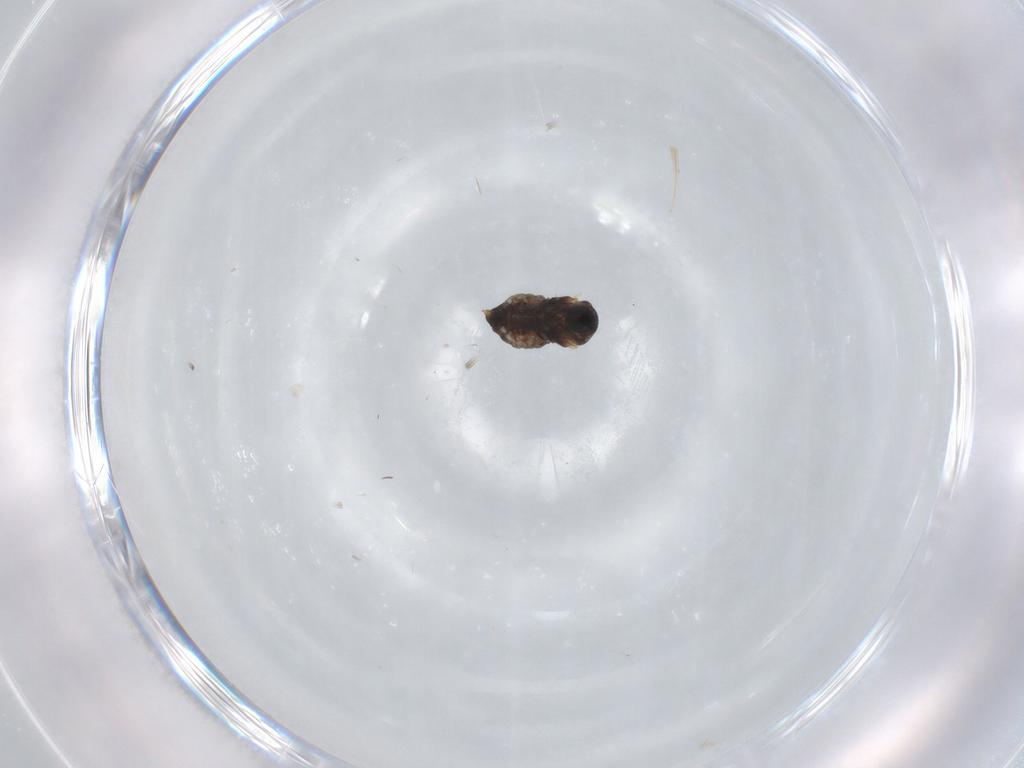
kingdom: Animalia
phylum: Arthropoda
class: Insecta
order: Diptera
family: Cecidomyiidae
